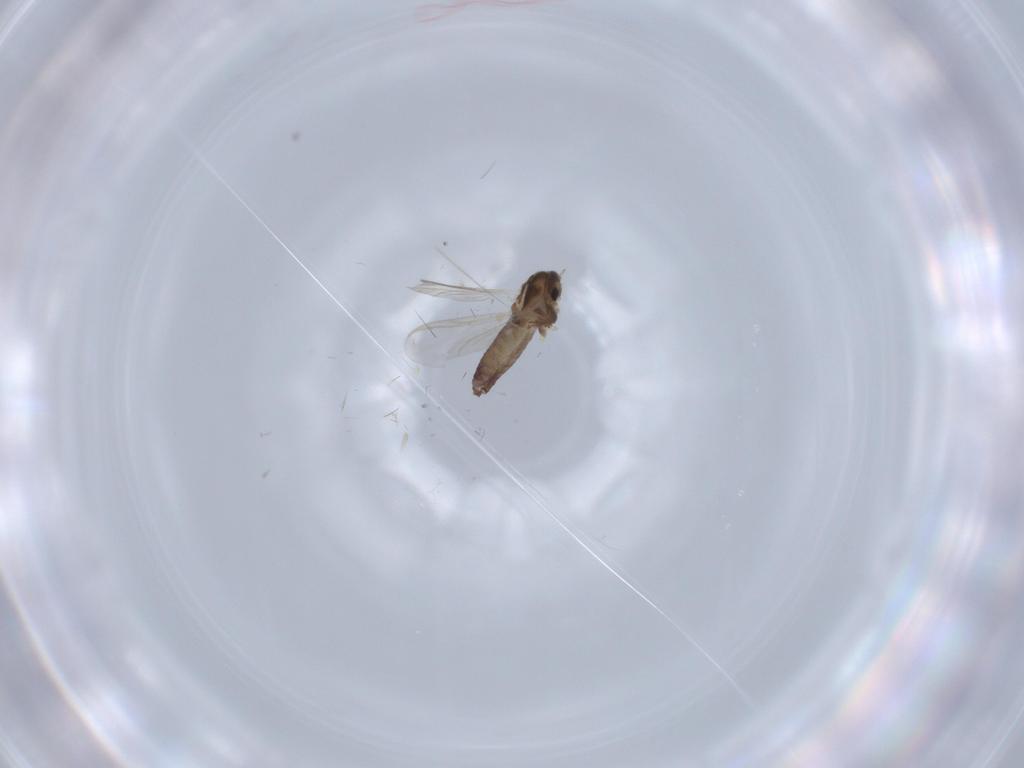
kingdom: Animalia
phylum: Arthropoda
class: Insecta
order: Diptera
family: Chironomidae
